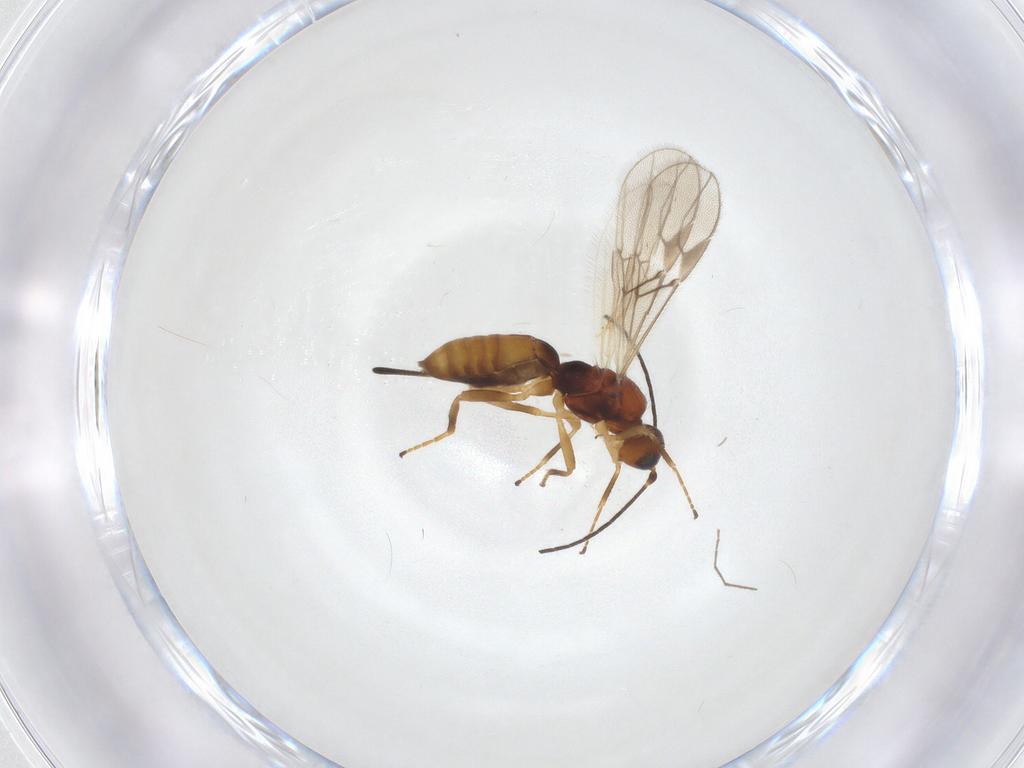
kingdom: Animalia
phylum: Arthropoda
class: Insecta
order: Hymenoptera
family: Braconidae
